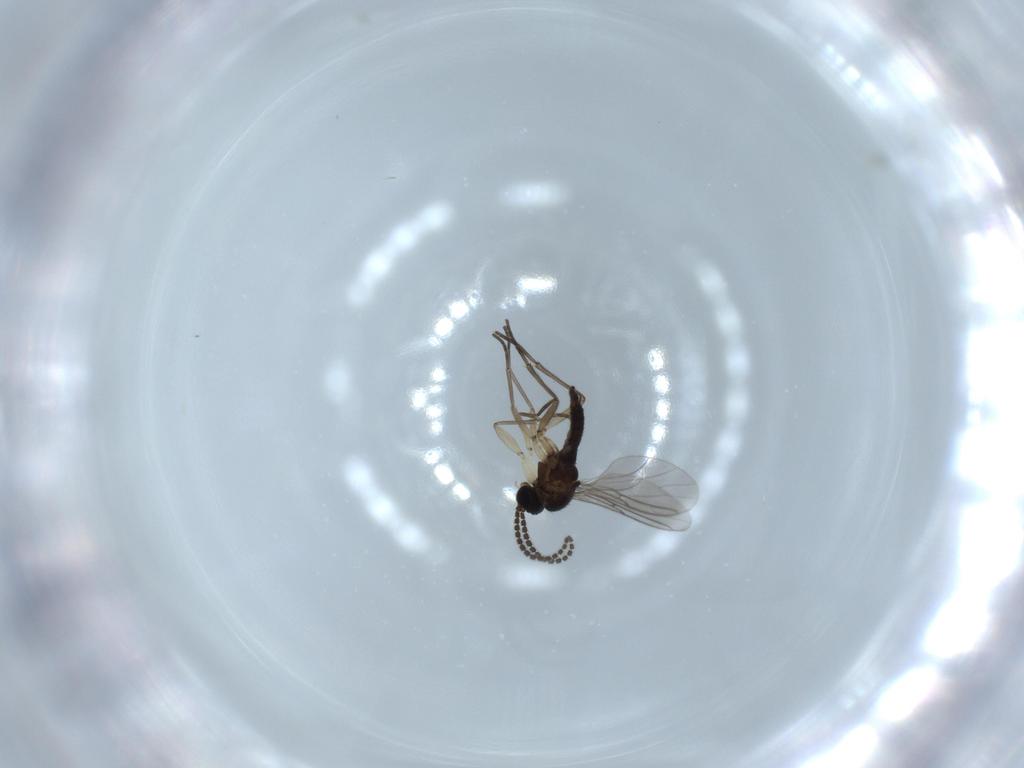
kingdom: Animalia
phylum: Arthropoda
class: Insecta
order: Diptera
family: Sciaridae
